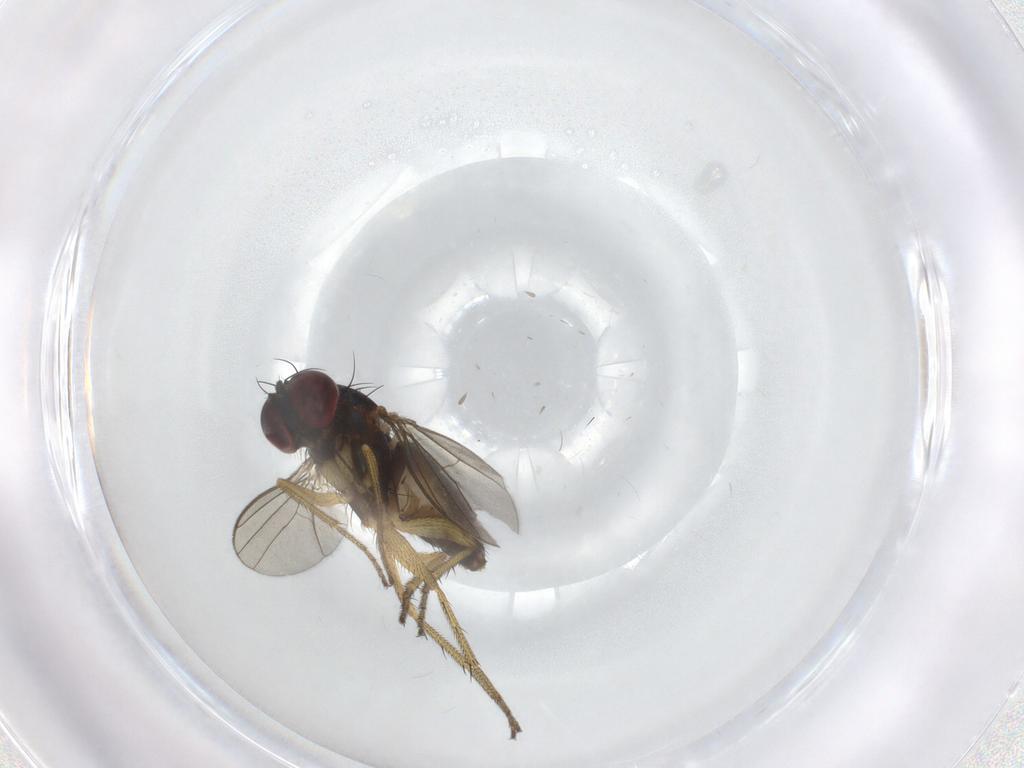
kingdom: Animalia
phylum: Arthropoda
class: Insecta
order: Diptera
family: Dolichopodidae
